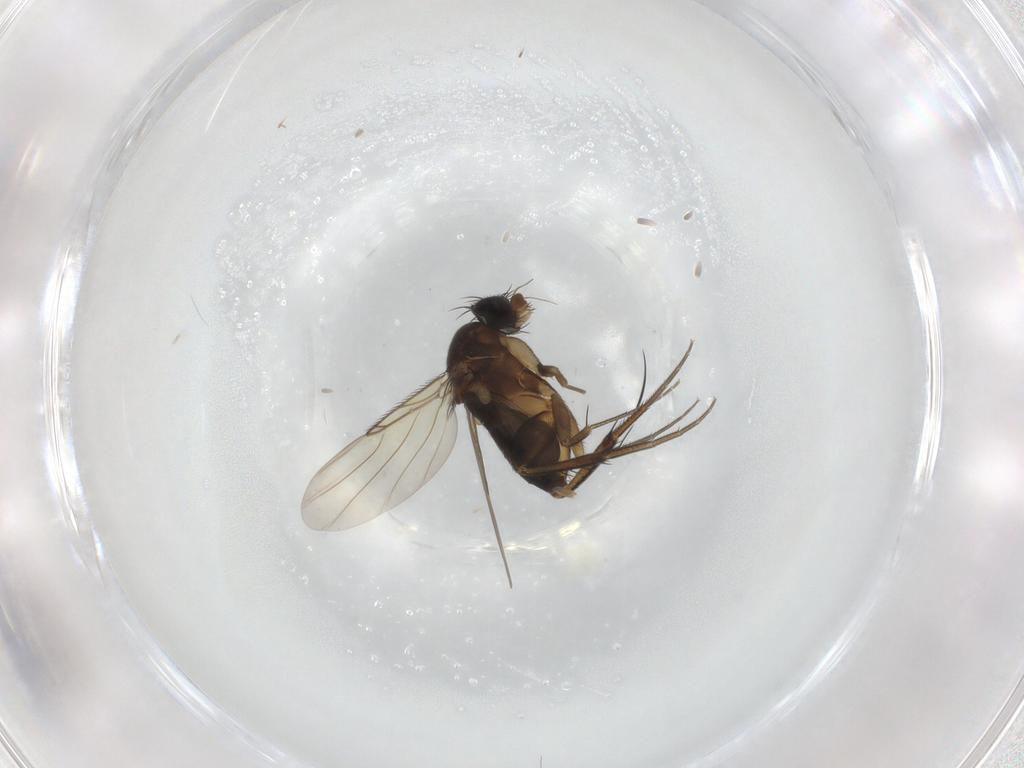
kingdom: Animalia
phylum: Arthropoda
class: Insecta
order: Diptera
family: Phoridae
